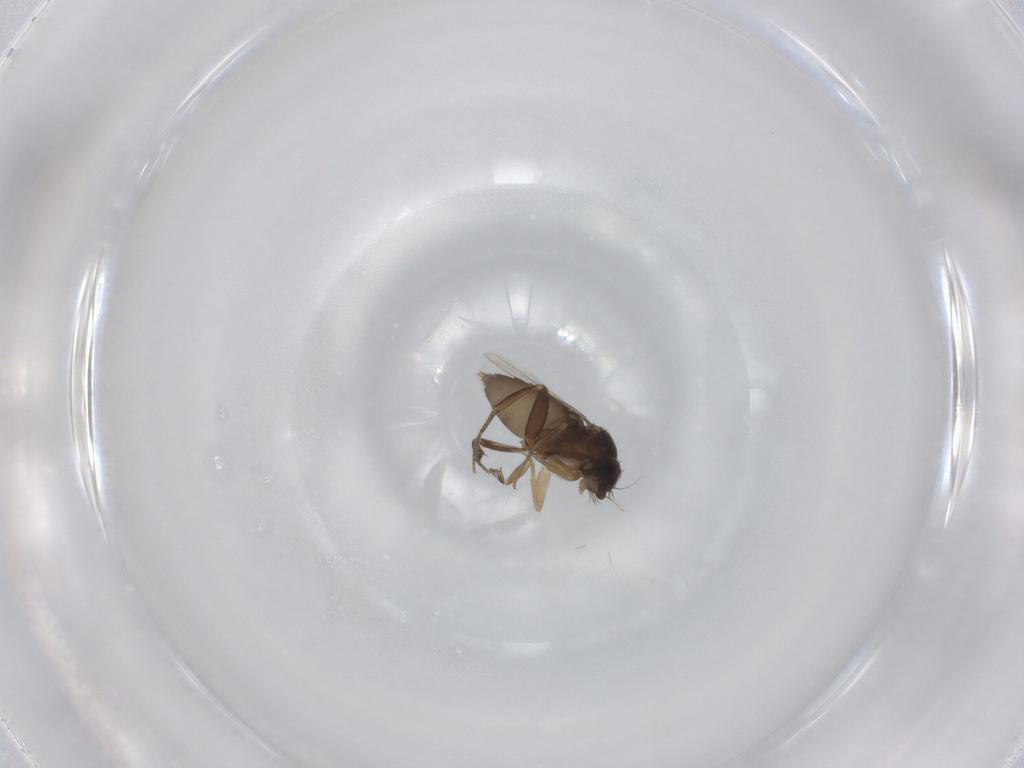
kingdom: Animalia
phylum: Arthropoda
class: Insecta
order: Diptera
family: Phoridae
